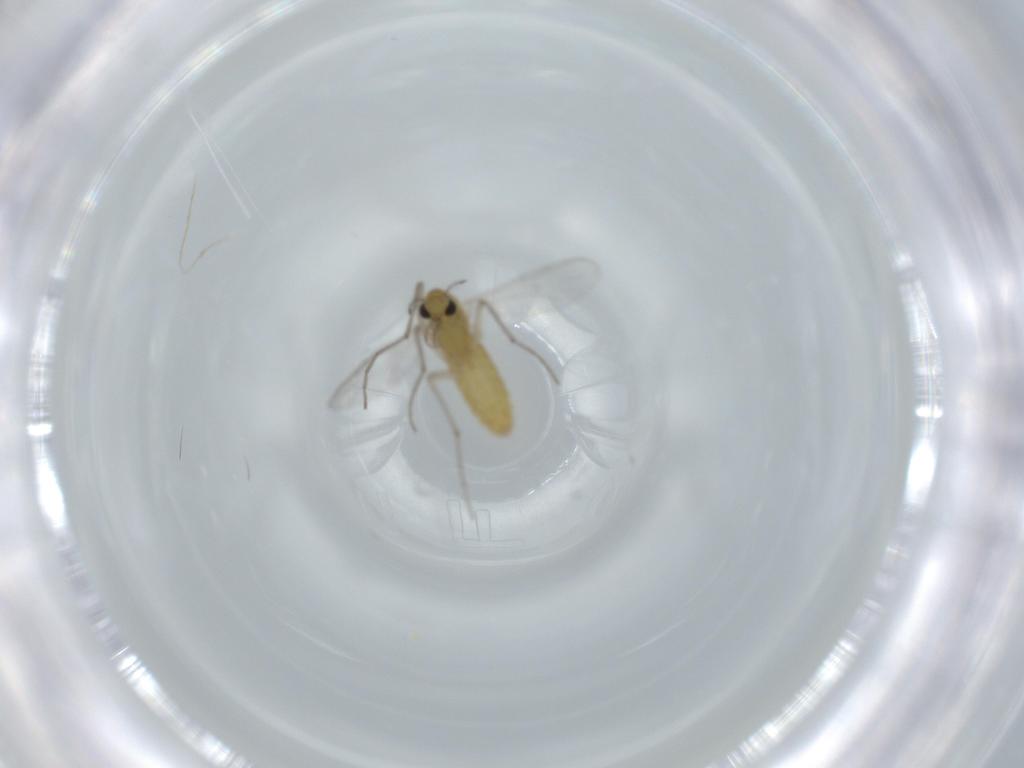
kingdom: Animalia
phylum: Arthropoda
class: Insecta
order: Diptera
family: Chironomidae
